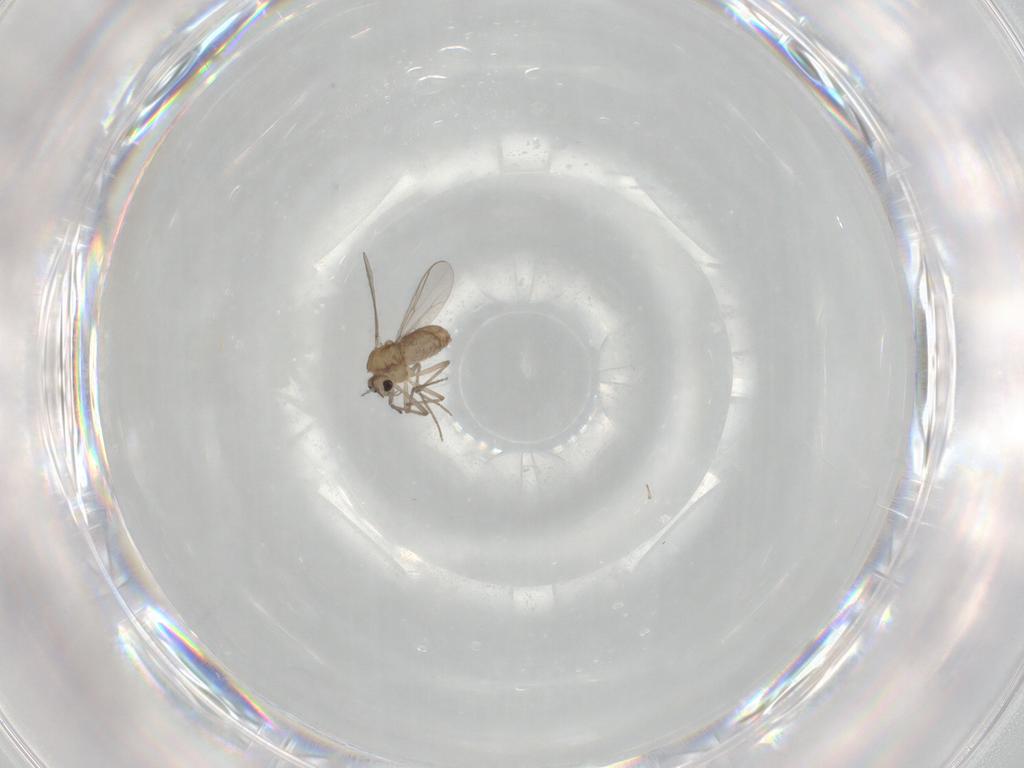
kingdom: Animalia
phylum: Arthropoda
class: Insecta
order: Diptera
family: Chironomidae
